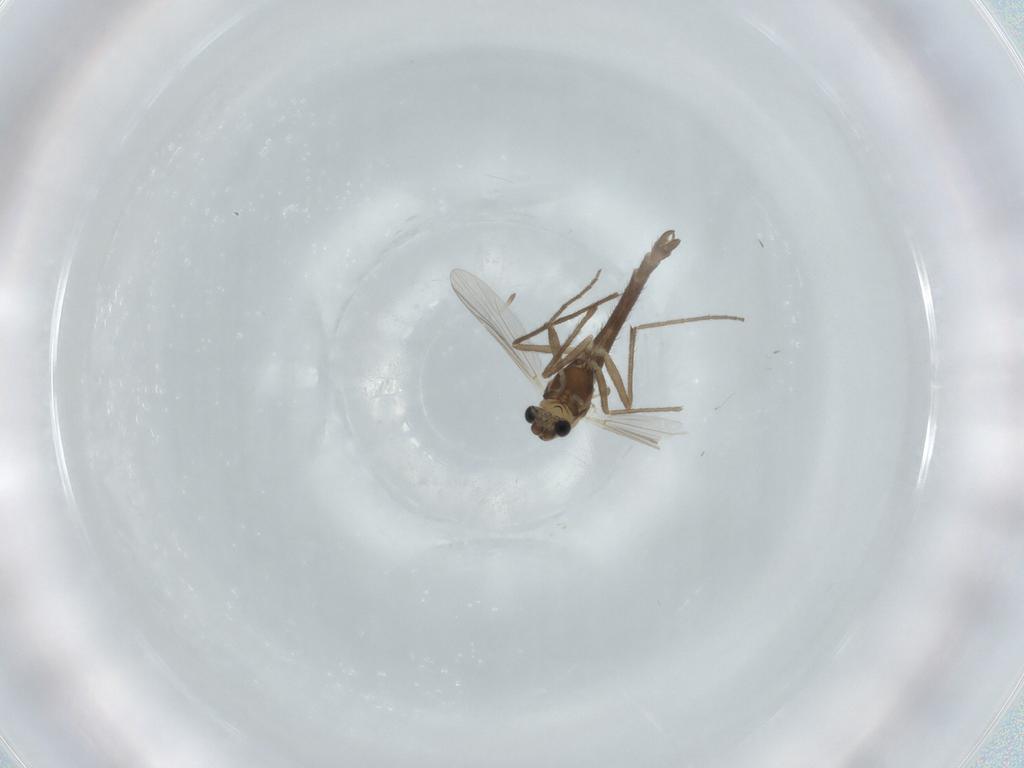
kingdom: Animalia
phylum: Arthropoda
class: Insecta
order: Diptera
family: Chironomidae
